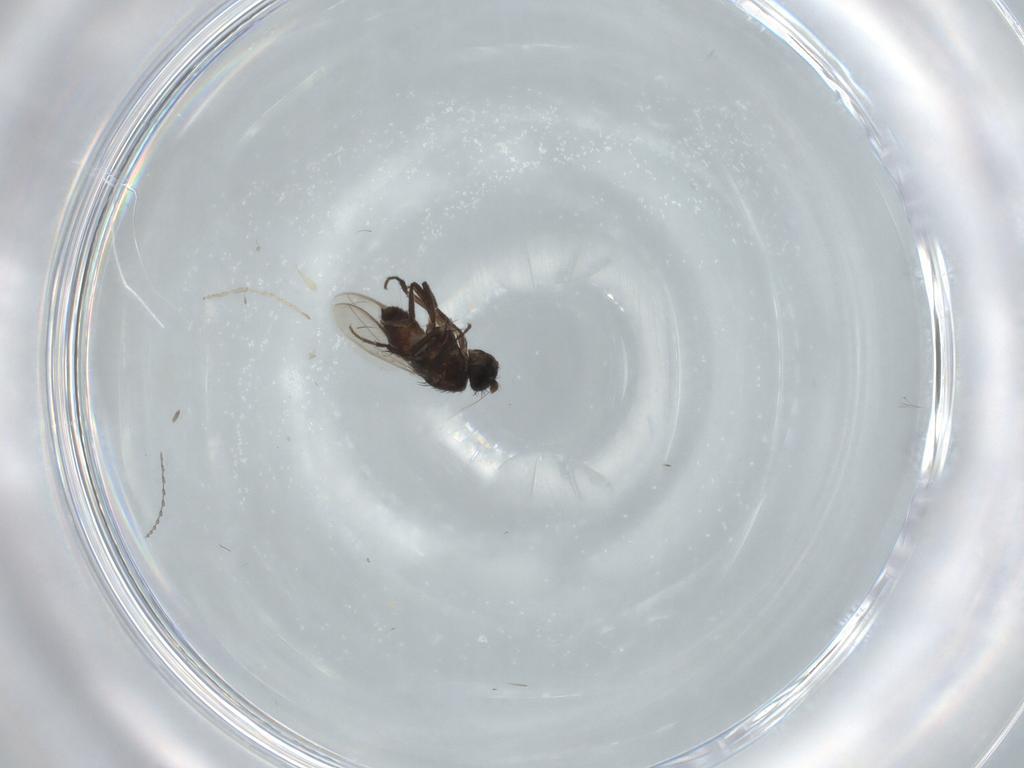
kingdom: Animalia
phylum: Arthropoda
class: Insecta
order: Diptera
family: Sphaeroceridae
